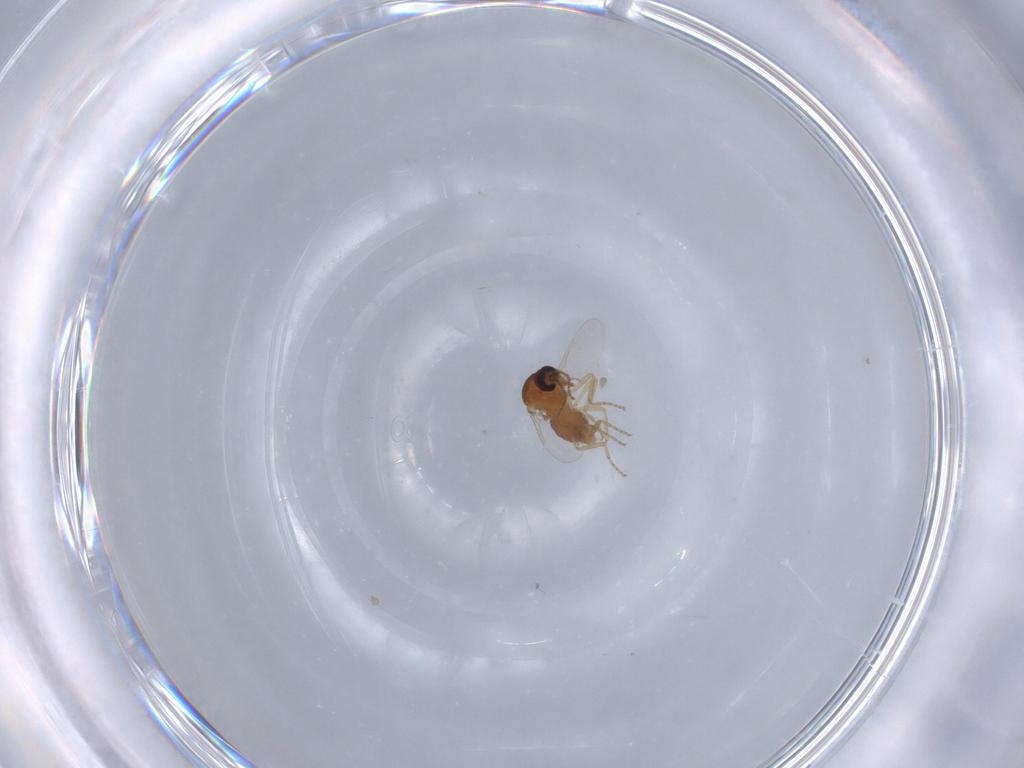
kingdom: Animalia
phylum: Arthropoda
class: Insecta
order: Diptera
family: Ceratopogonidae
